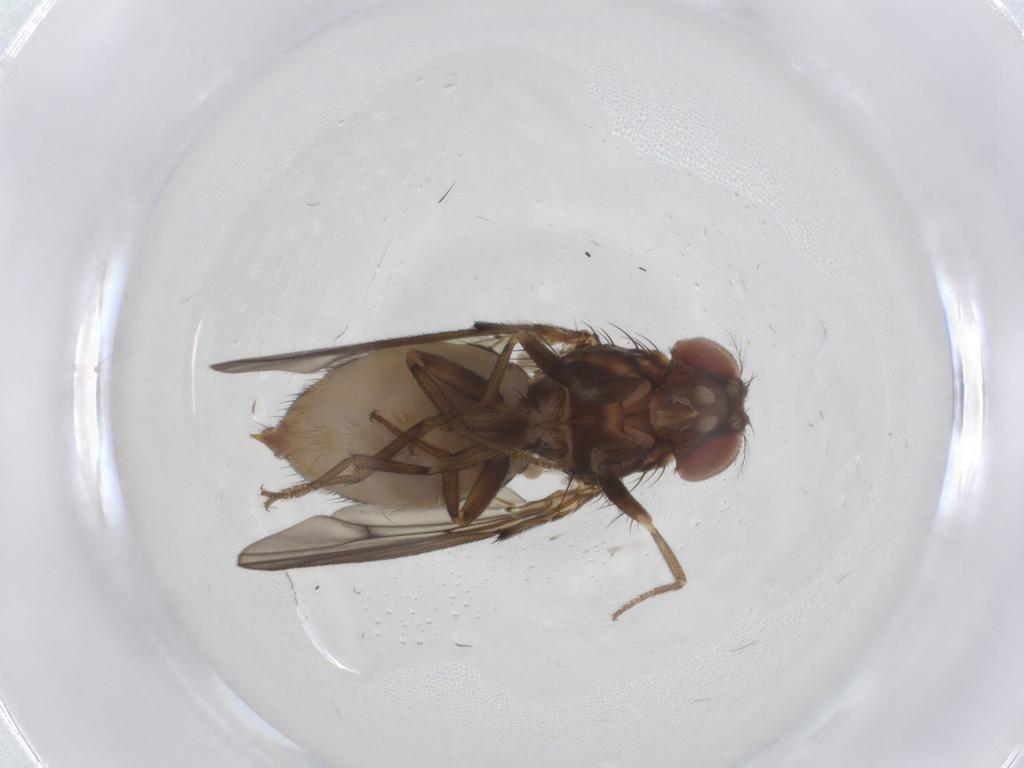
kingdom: Animalia
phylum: Arthropoda
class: Insecta
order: Diptera
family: Drosophilidae
